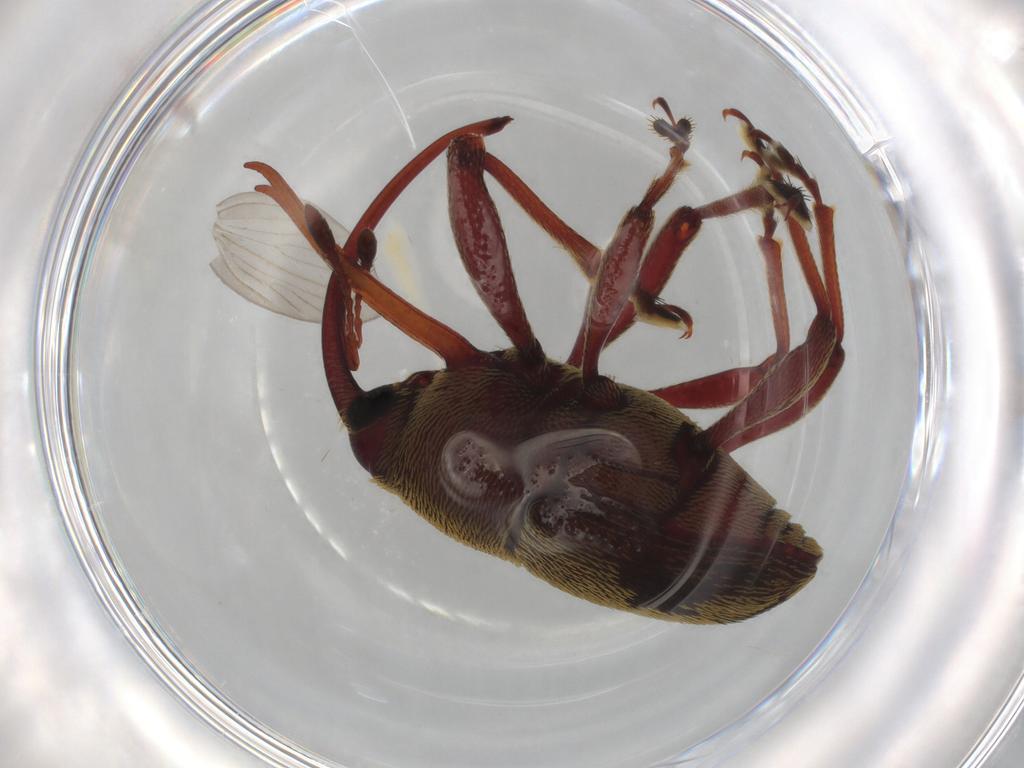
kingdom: Animalia
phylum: Arthropoda
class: Insecta
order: Coleoptera
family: Curculionidae
